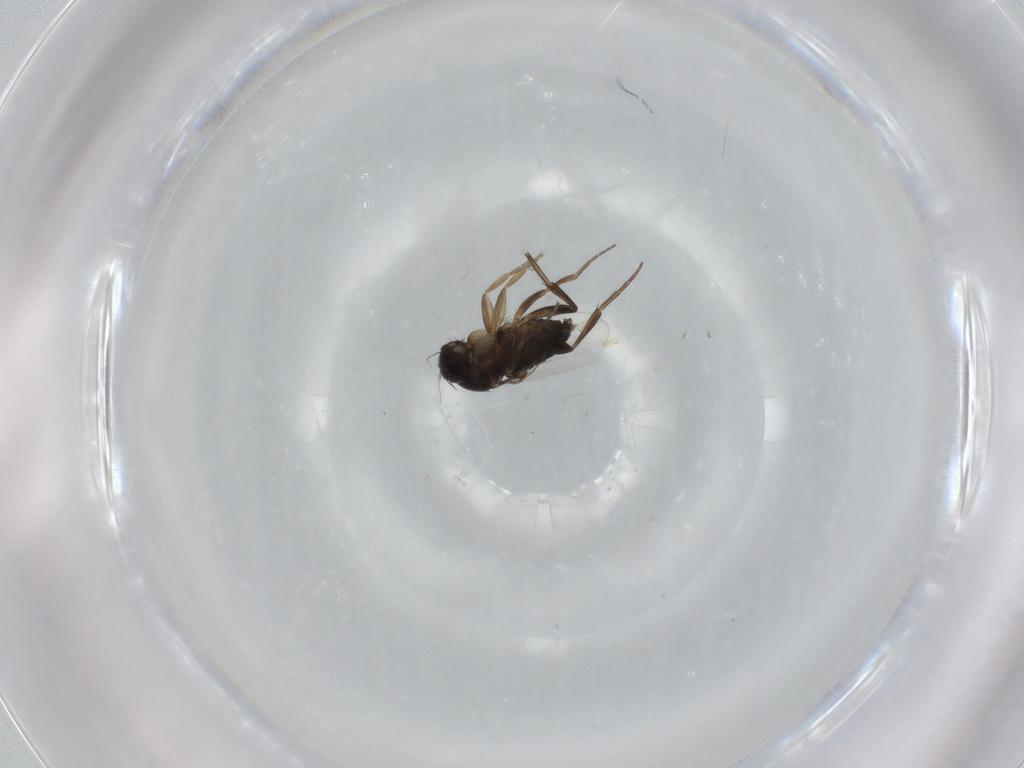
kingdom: Animalia
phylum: Arthropoda
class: Insecta
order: Diptera
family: Phoridae
